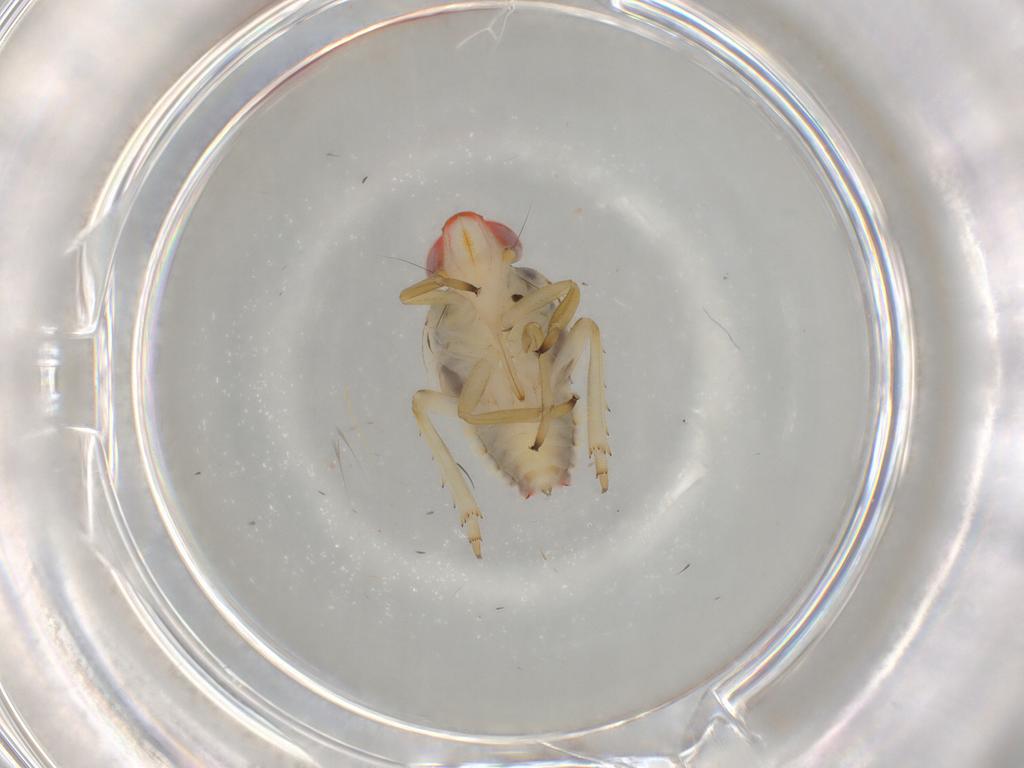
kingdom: Animalia
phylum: Arthropoda
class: Insecta
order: Hemiptera
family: Issidae
